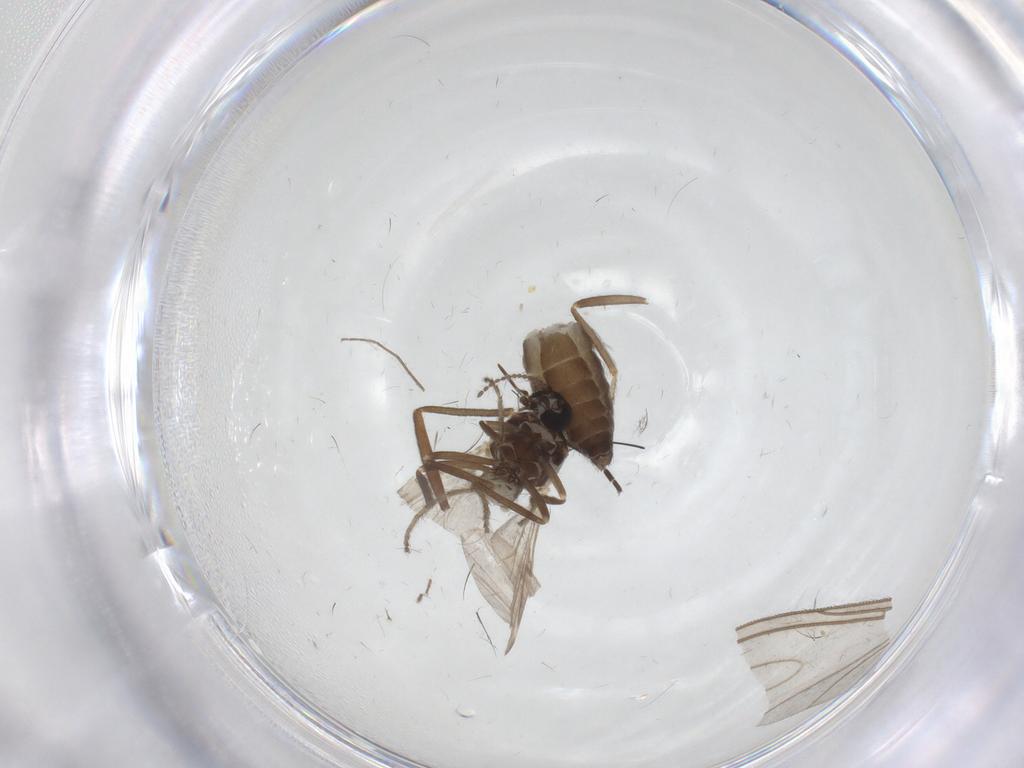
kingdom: Animalia
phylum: Arthropoda
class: Insecta
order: Diptera
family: Ceratopogonidae
